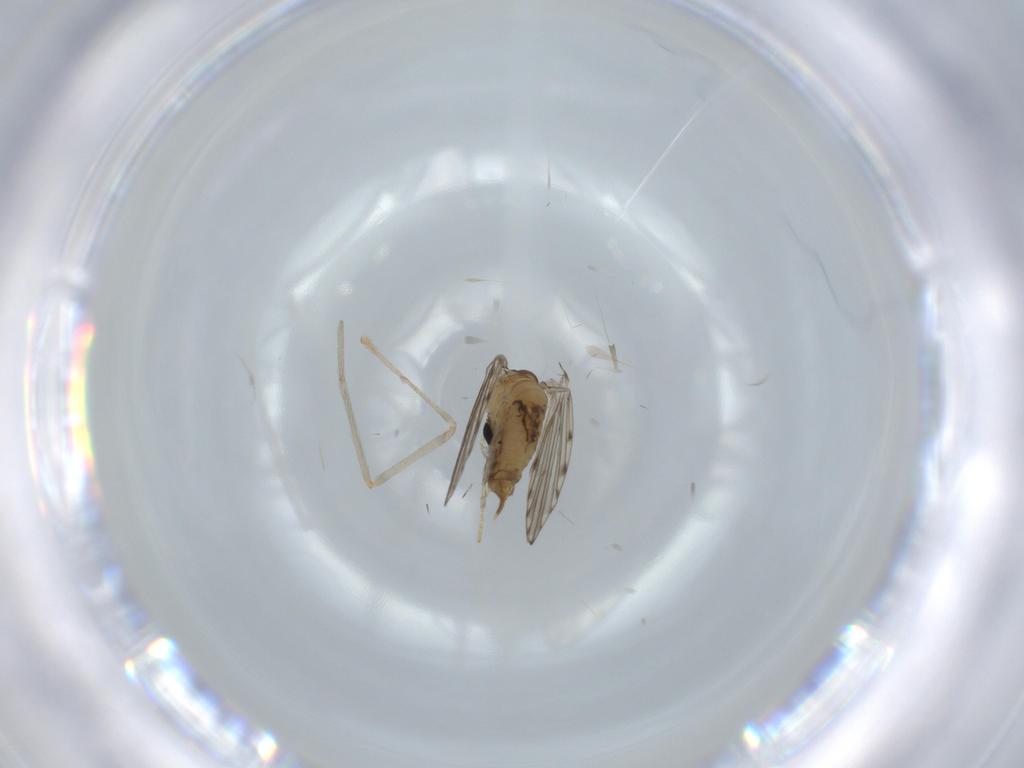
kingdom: Animalia
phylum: Arthropoda
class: Insecta
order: Diptera
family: Psychodidae
